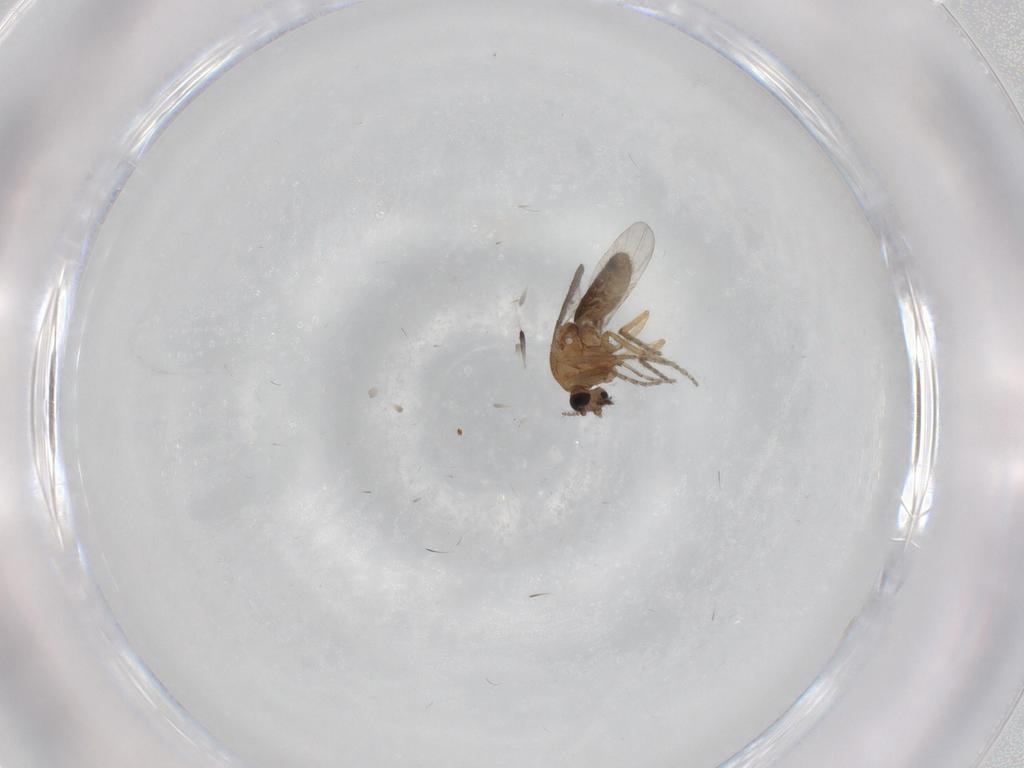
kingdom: Animalia
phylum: Arthropoda
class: Insecta
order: Diptera
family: Ceratopogonidae
